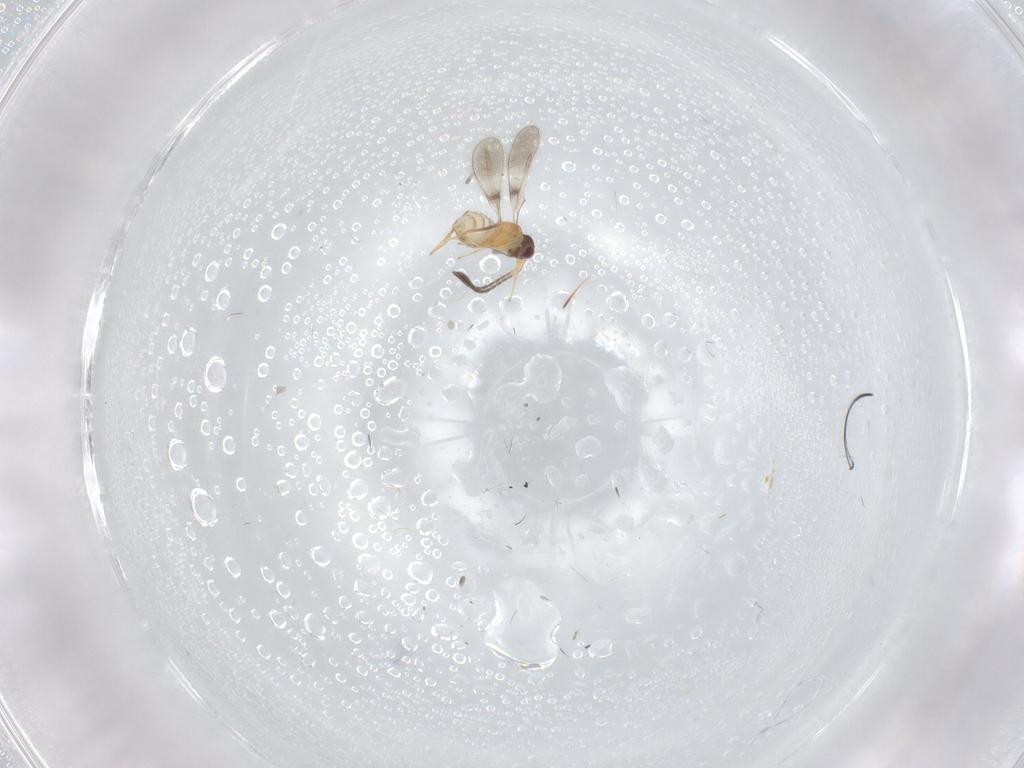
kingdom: Animalia
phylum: Arthropoda
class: Insecta
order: Hymenoptera
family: Mymaridae
